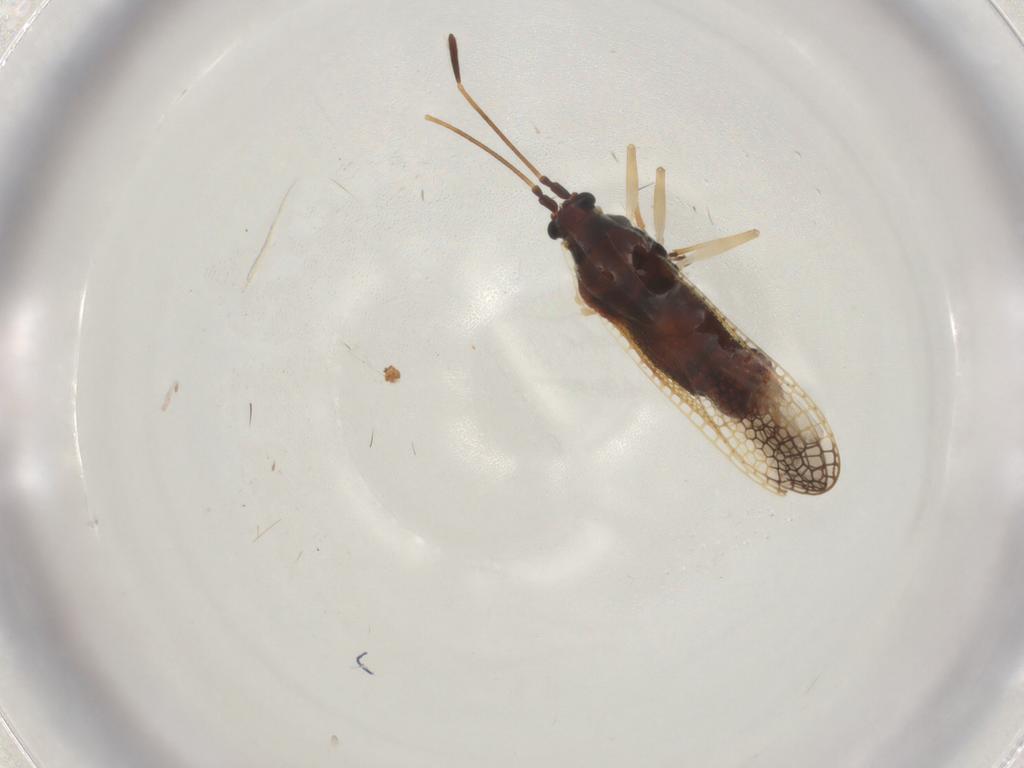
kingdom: Animalia
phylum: Arthropoda
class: Insecta
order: Hemiptera
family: Tingidae
